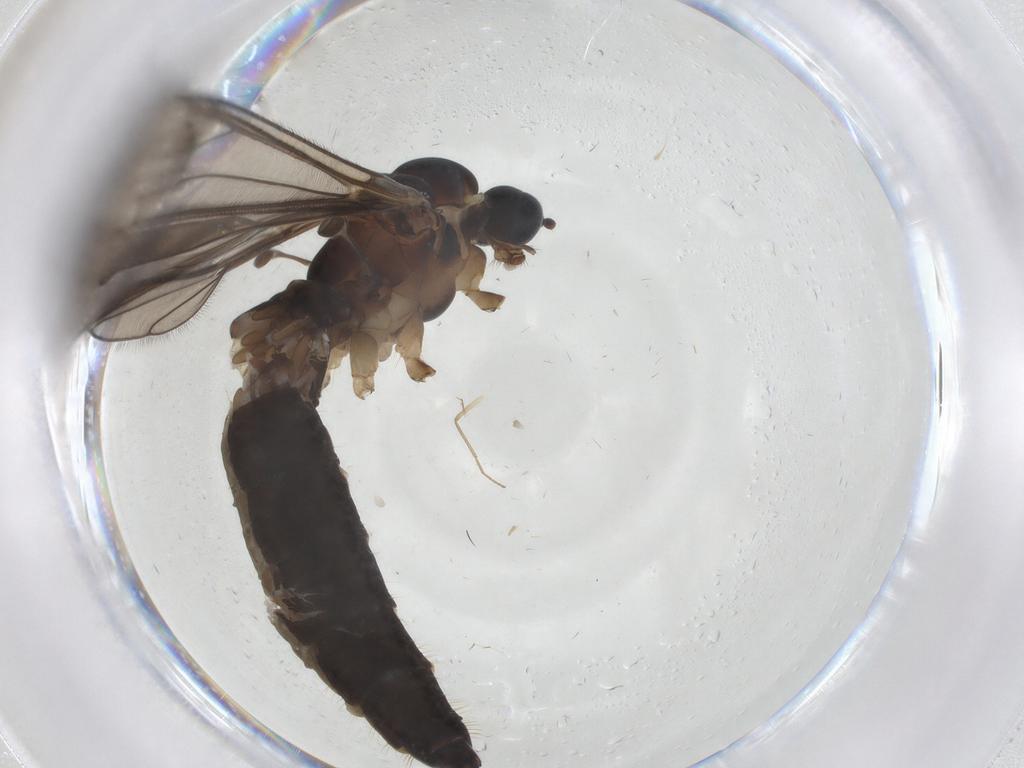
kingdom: Animalia
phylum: Arthropoda
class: Insecta
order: Diptera
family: Limoniidae
